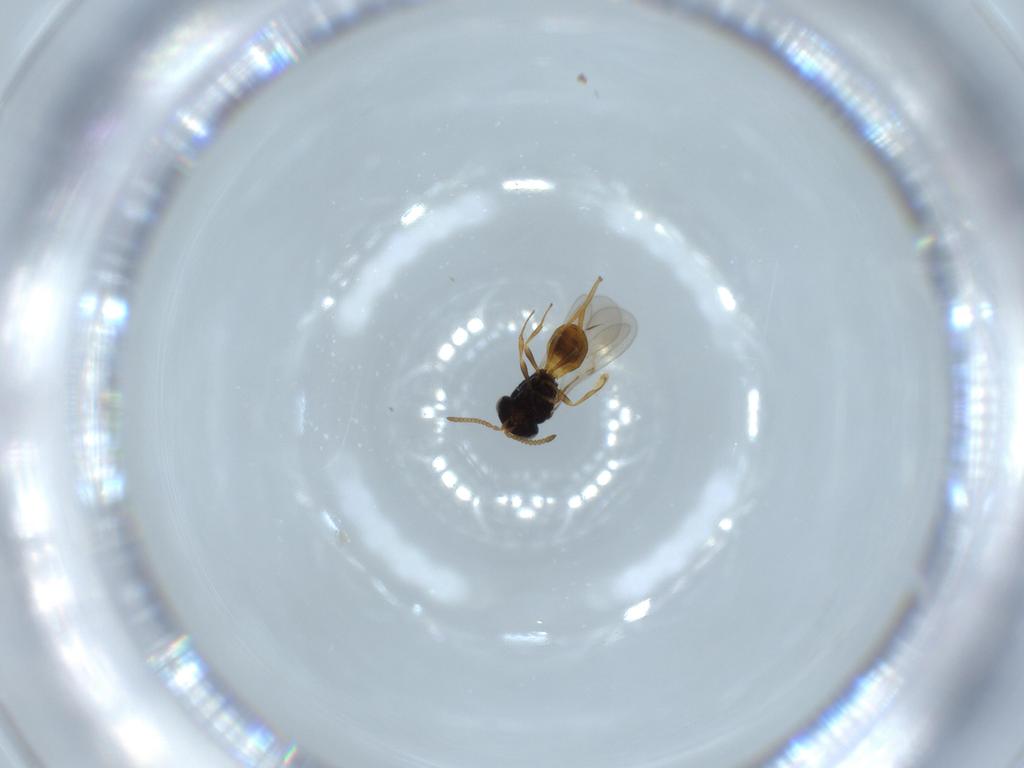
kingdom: Animalia
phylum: Arthropoda
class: Insecta
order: Hymenoptera
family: Scelionidae
